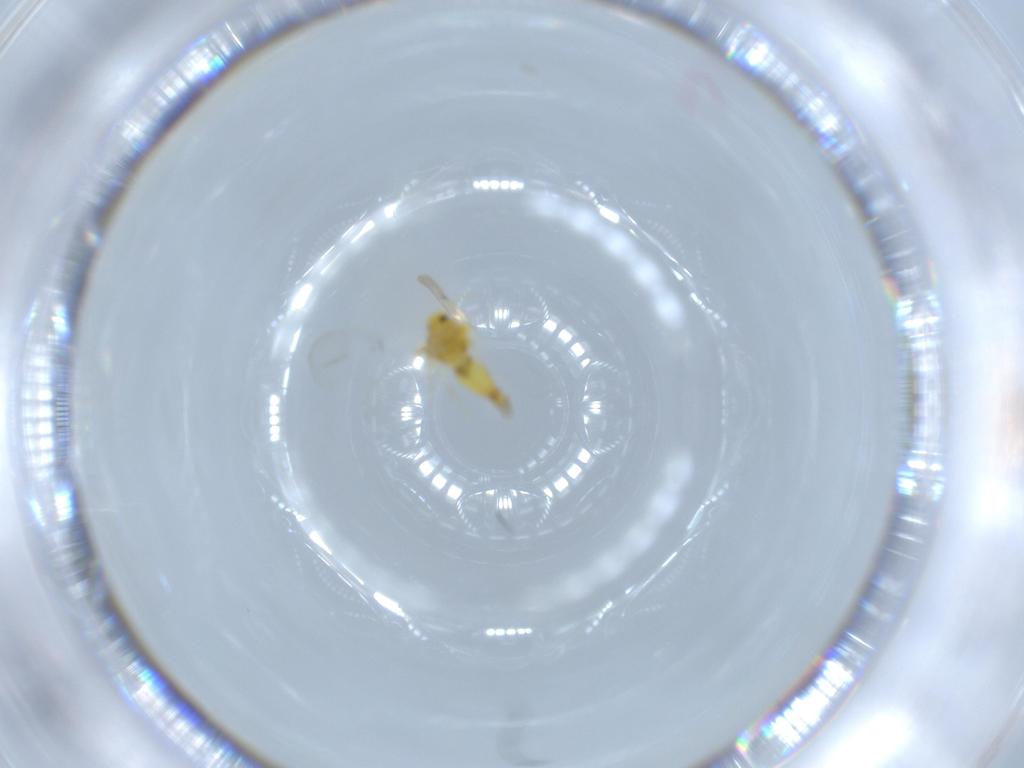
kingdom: Animalia
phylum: Arthropoda
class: Insecta
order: Hemiptera
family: Aleyrodidae
